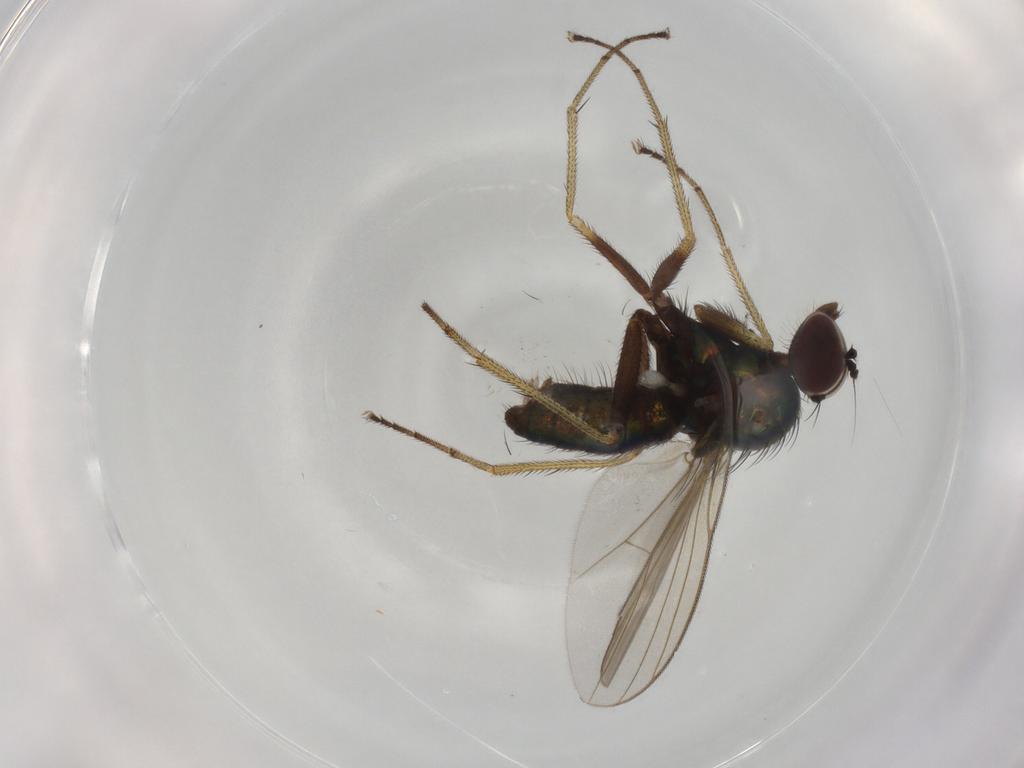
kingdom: Animalia
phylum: Arthropoda
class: Insecta
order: Diptera
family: Dolichopodidae
